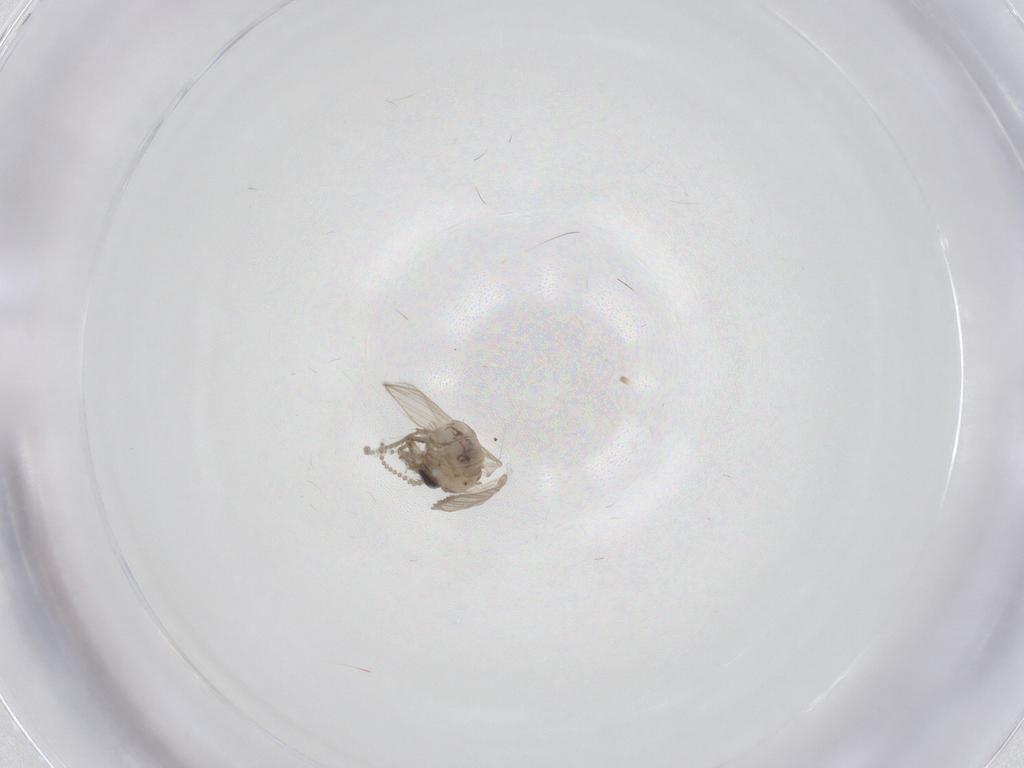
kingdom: Animalia
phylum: Arthropoda
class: Insecta
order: Diptera
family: Psychodidae
